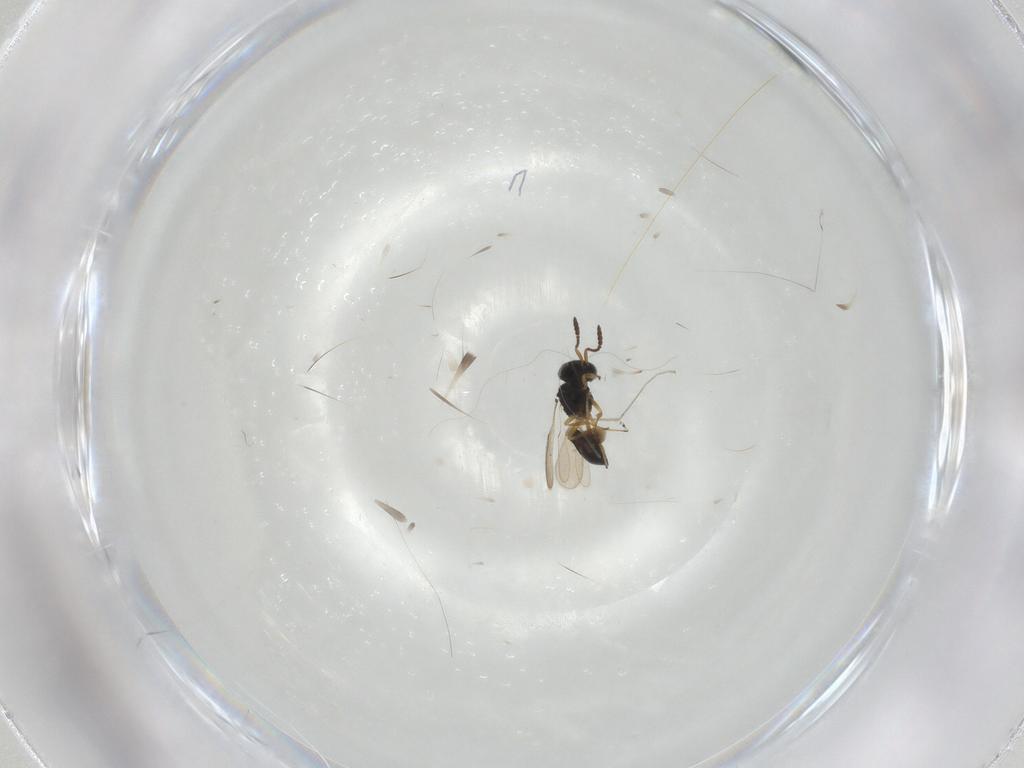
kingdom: Animalia
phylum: Arthropoda
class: Insecta
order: Hymenoptera
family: Scelionidae
